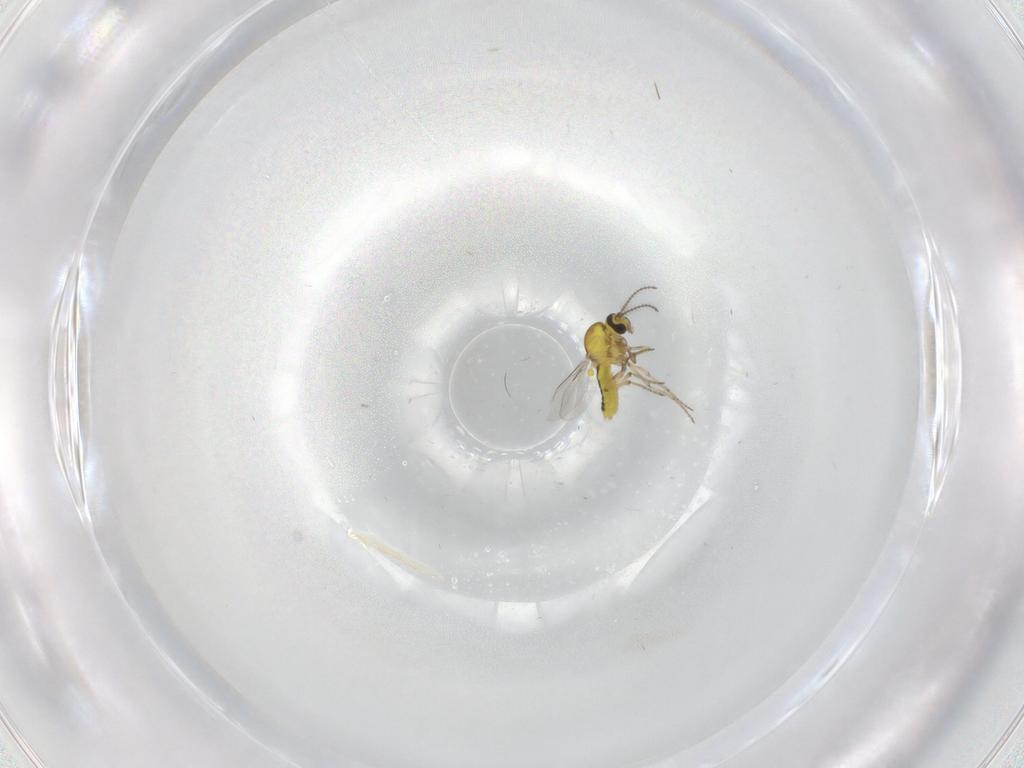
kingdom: Animalia
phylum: Arthropoda
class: Insecta
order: Diptera
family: Cecidomyiidae
